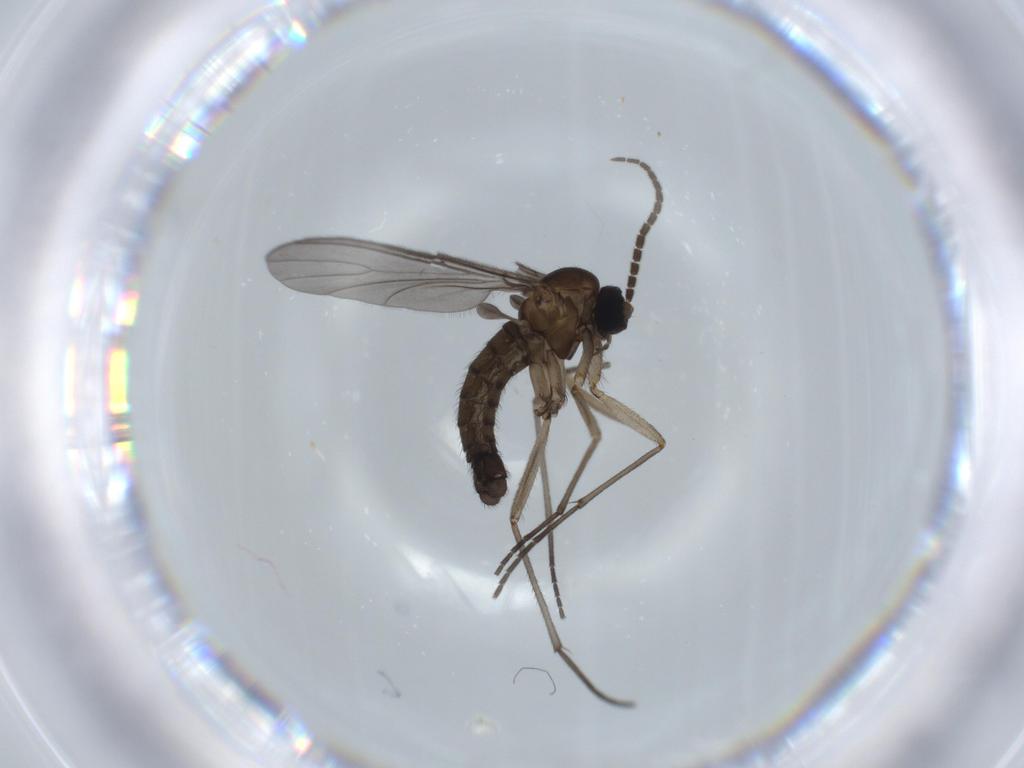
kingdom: Animalia
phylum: Arthropoda
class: Insecta
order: Diptera
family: Sciaridae
